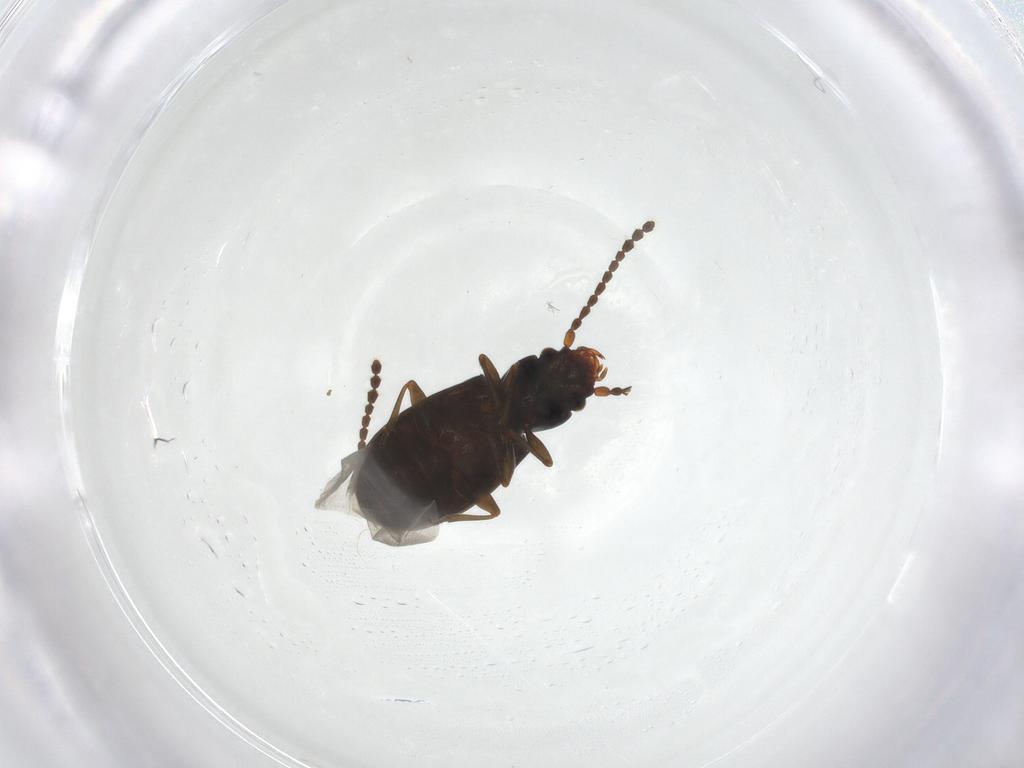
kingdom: Animalia
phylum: Arthropoda
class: Insecta
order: Coleoptera
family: Laemophloeidae
